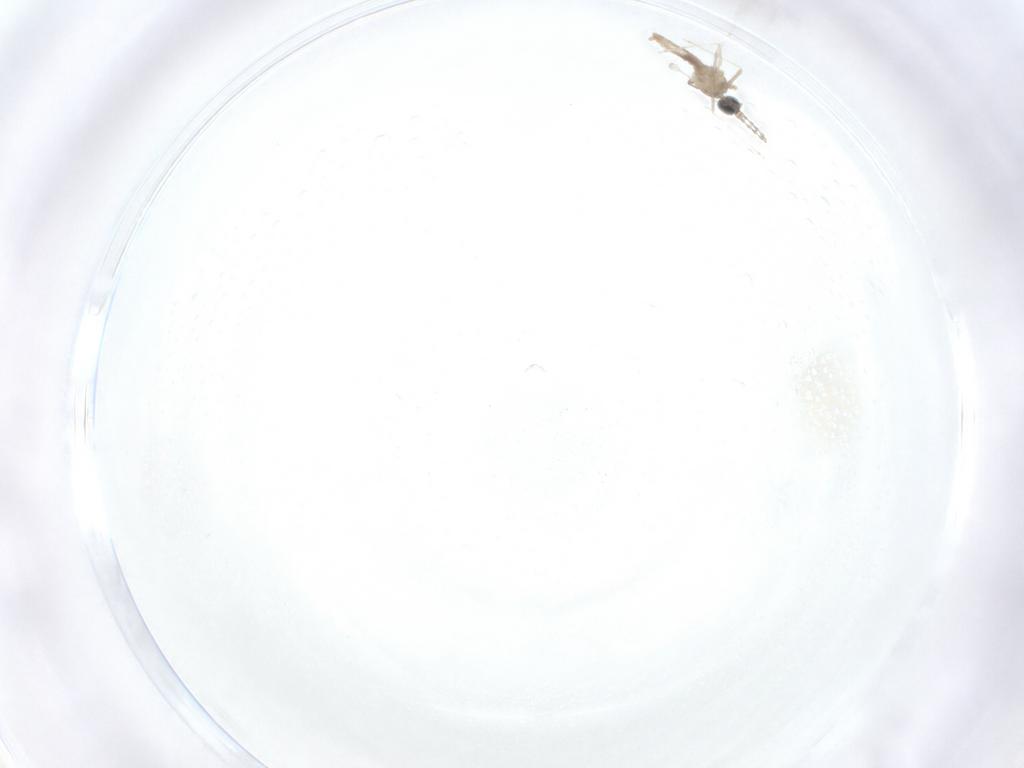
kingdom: Animalia
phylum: Arthropoda
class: Insecta
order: Diptera
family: Cecidomyiidae
